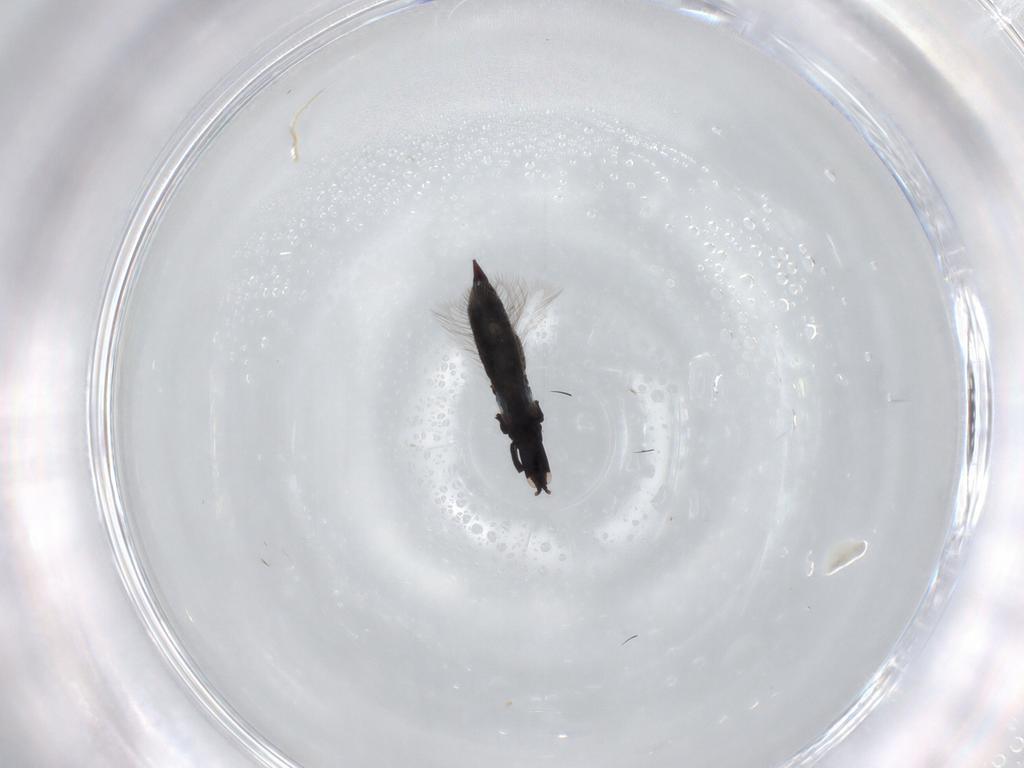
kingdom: Animalia
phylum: Arthropoda
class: Insecta
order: Thysanoptera
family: Phlaeothripidae
